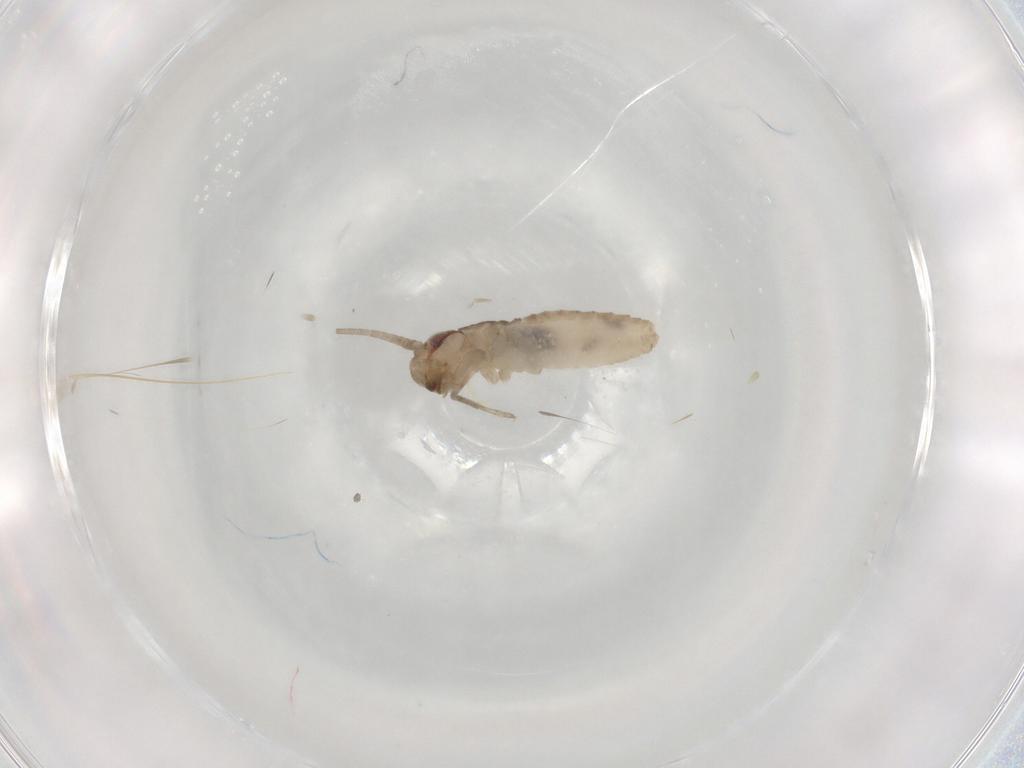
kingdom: Animalia
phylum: Arthropoda
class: Insecta
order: Orthoptera
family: Gryllidae
